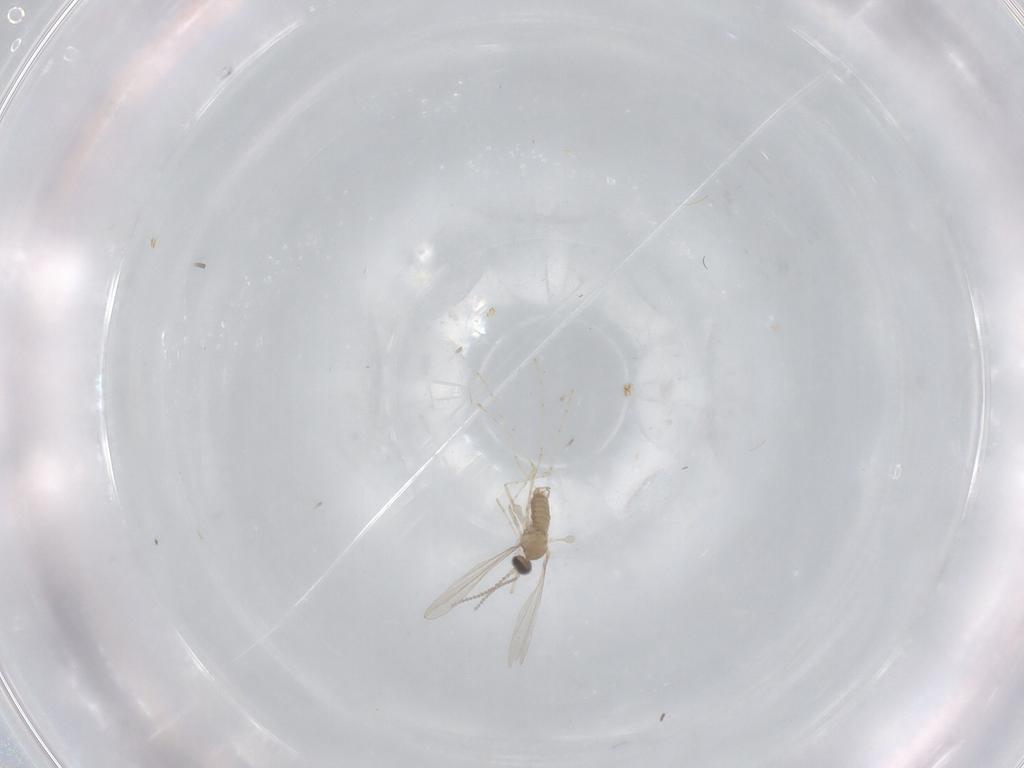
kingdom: Animalia
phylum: Arthropoda
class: Insecta
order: Diptera
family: Cecidomyiidae
